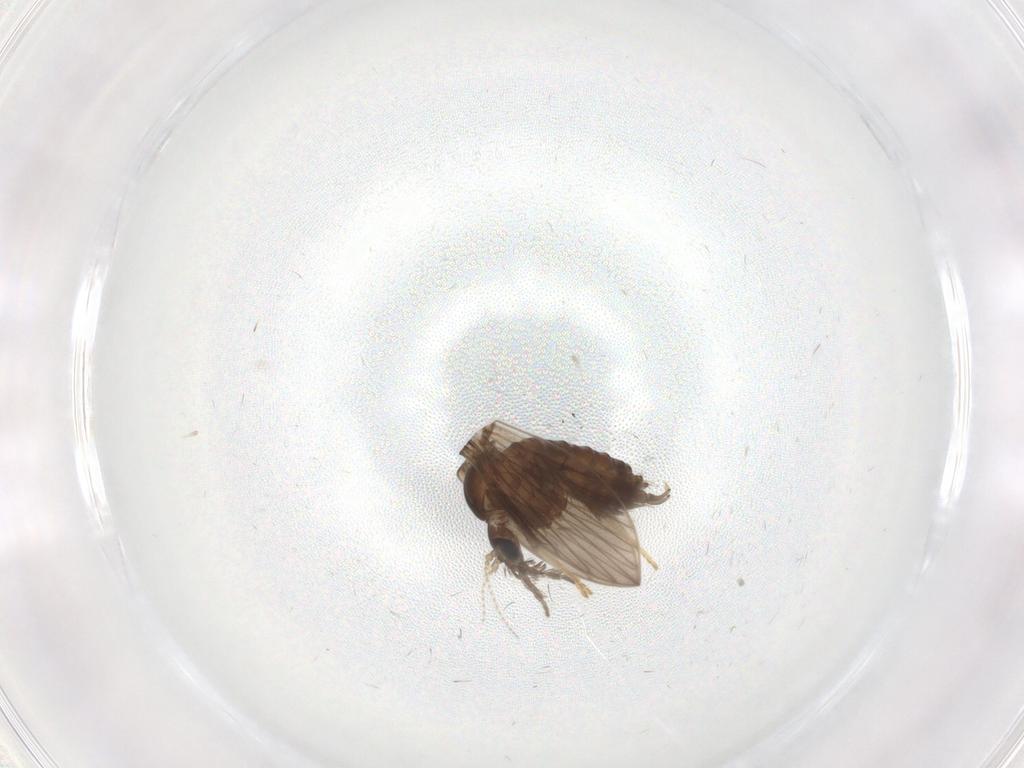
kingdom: Animalia
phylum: Arthropoda
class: Insecta
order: Diptera
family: Psychodidae
